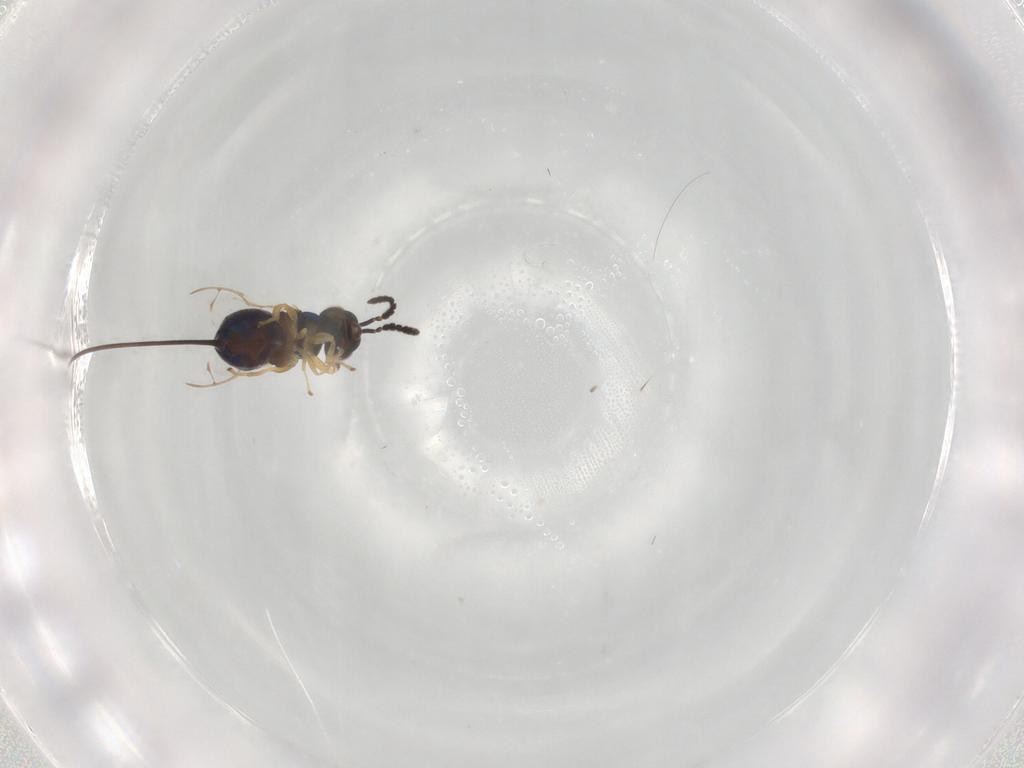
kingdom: Animalia
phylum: Arthropoda
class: Insecta
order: Hymenoptera
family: Pteromalidae
